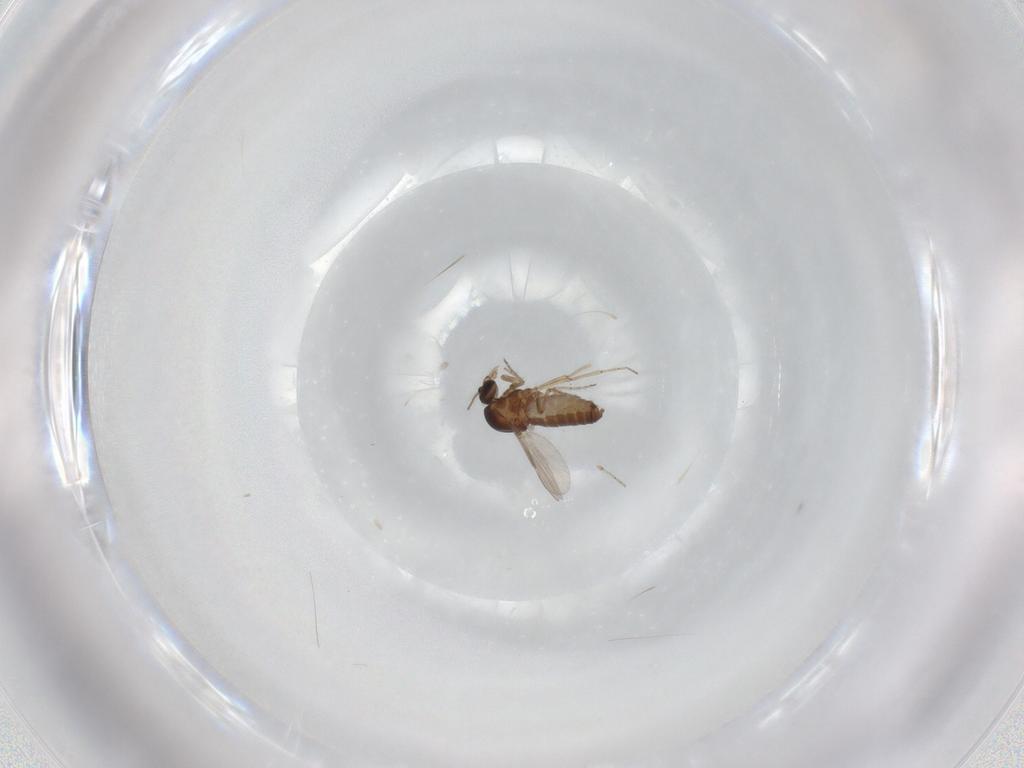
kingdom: Animalia
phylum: Arthropoda
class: Insecta
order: Diptera
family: Ceratopogonidae
